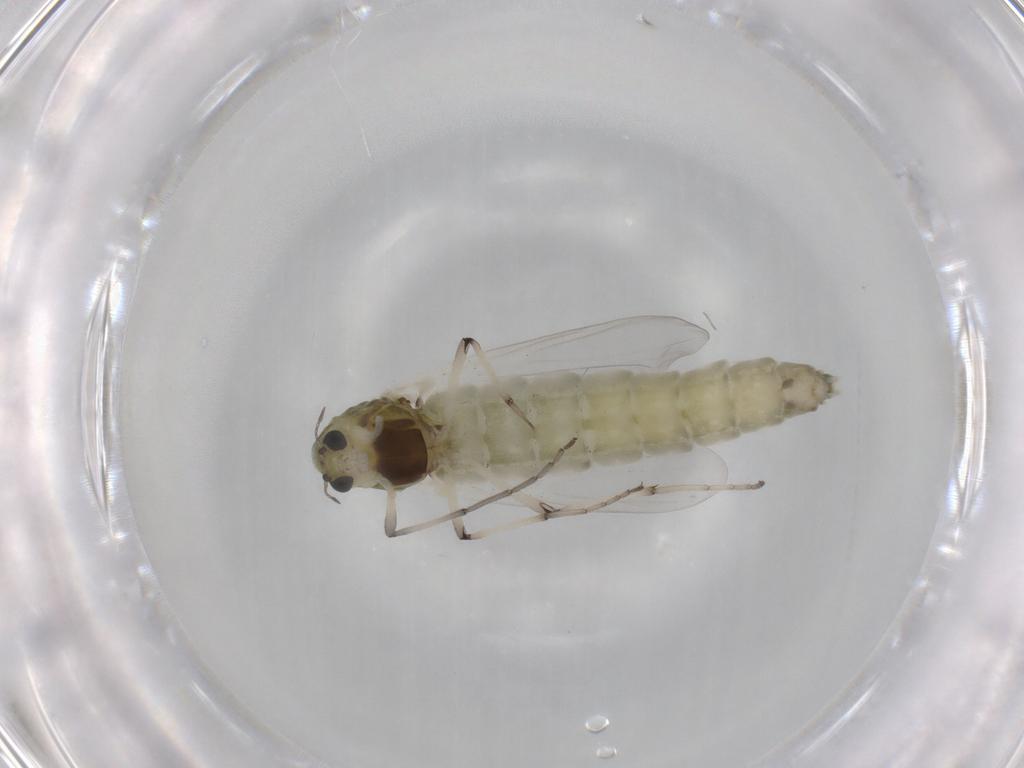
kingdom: Animalia
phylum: Arthropoda
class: Insecta
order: Diptera
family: Chironomidae
